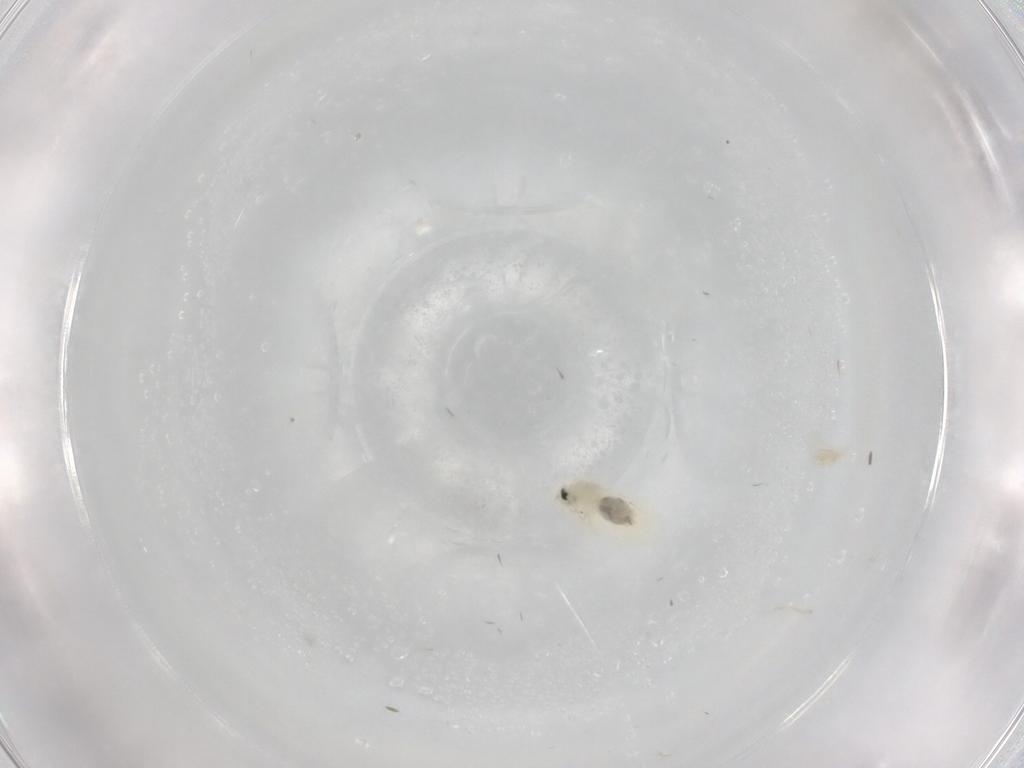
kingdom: Animalia
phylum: Arthropoda
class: Insecta
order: Hemiptera
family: Aleyrodidae
